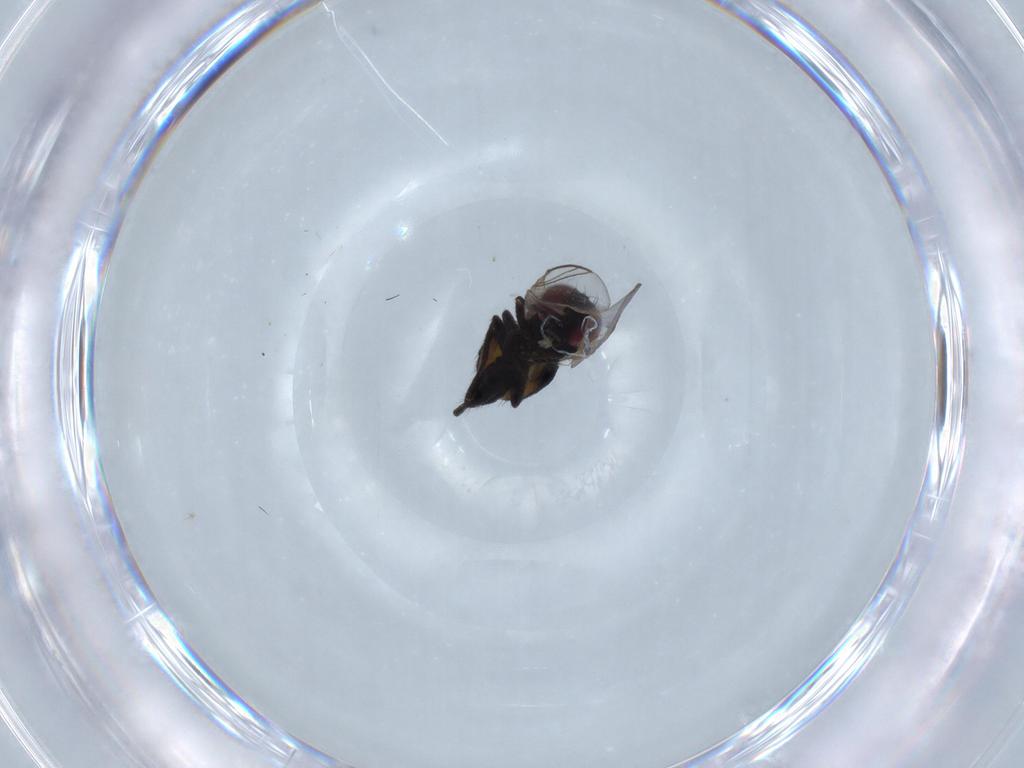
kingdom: Animalia
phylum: Arthropoda
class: Insecta
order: Diptera
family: Agromyzidae
